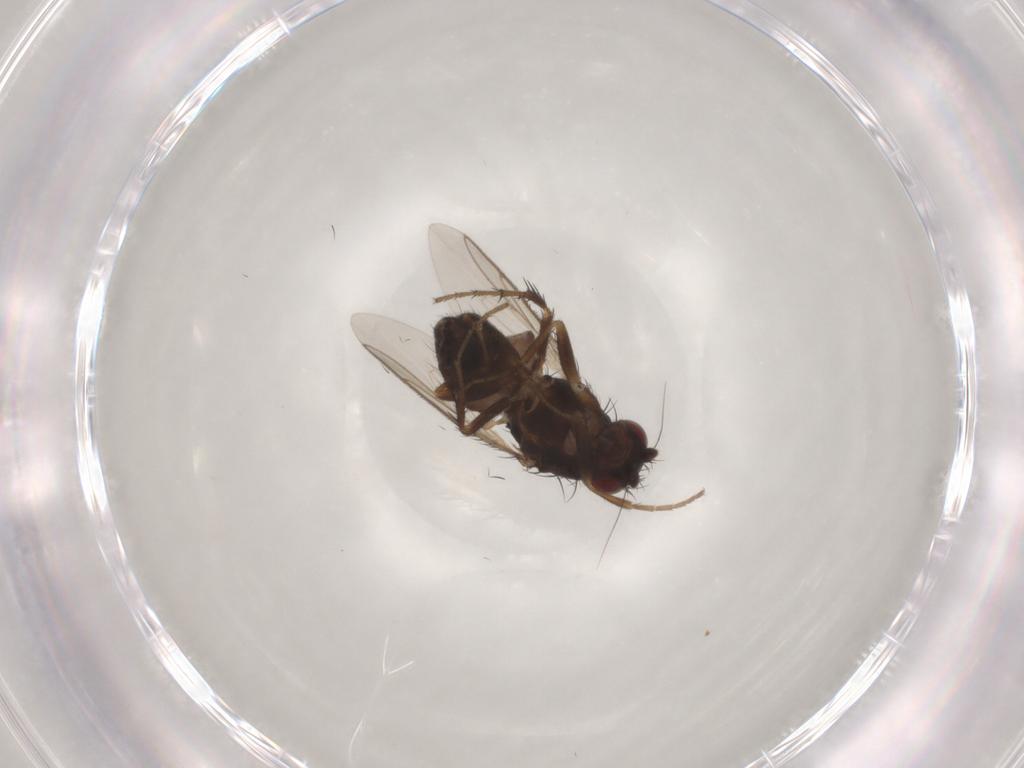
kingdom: Animalia
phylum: Arthropoda
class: Insecta
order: Diptera
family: Sphaeroceridae
